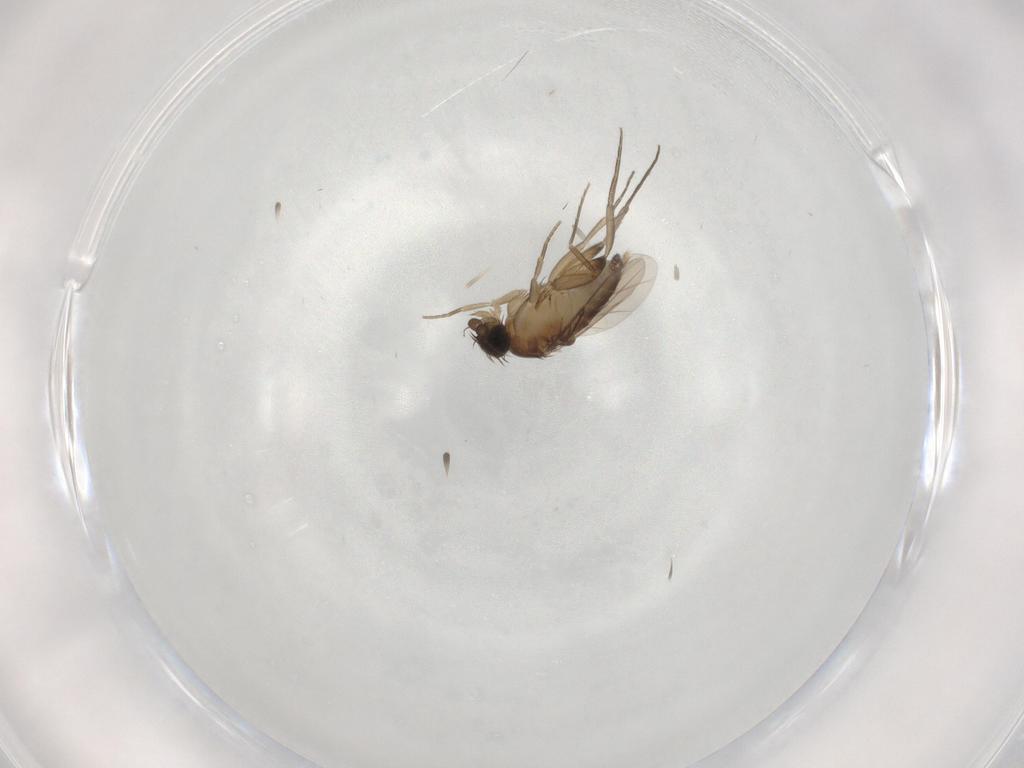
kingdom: Animalia
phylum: Arthropoda
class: Insecta
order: Diptera
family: Phoridae
